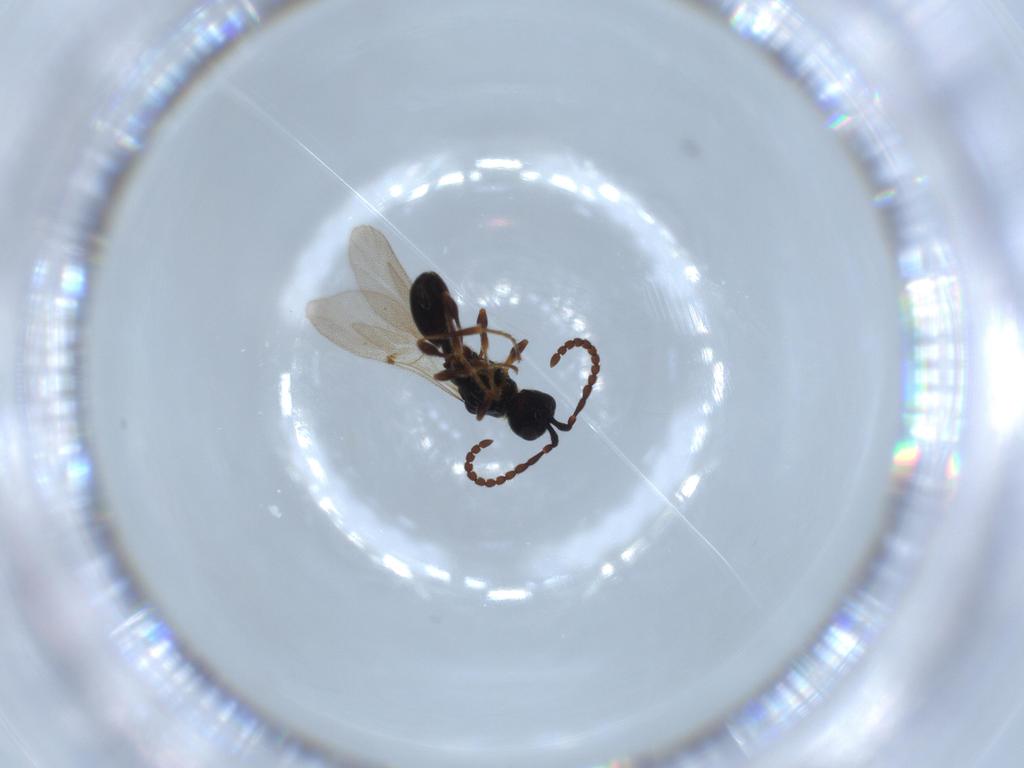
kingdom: Animalia
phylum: Arthropoda
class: Insecta
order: Hymenoptera
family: Diapriidae
